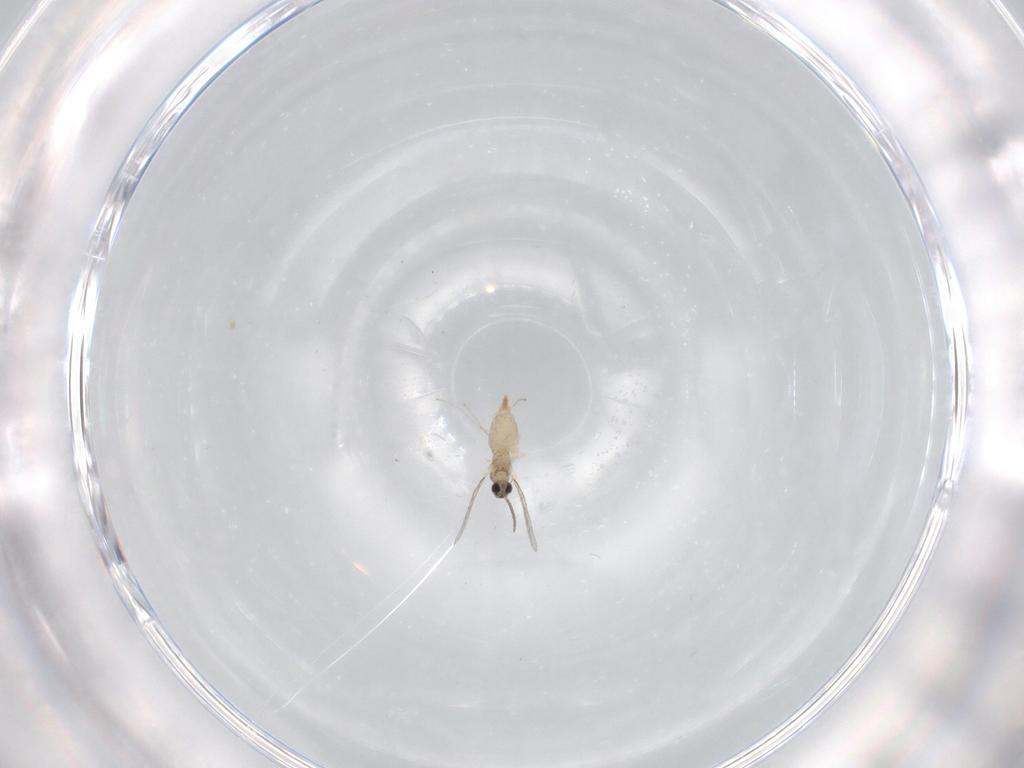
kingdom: Animalia
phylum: Arthropoda
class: Insecta
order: Diptera
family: Cecidomyiidae
